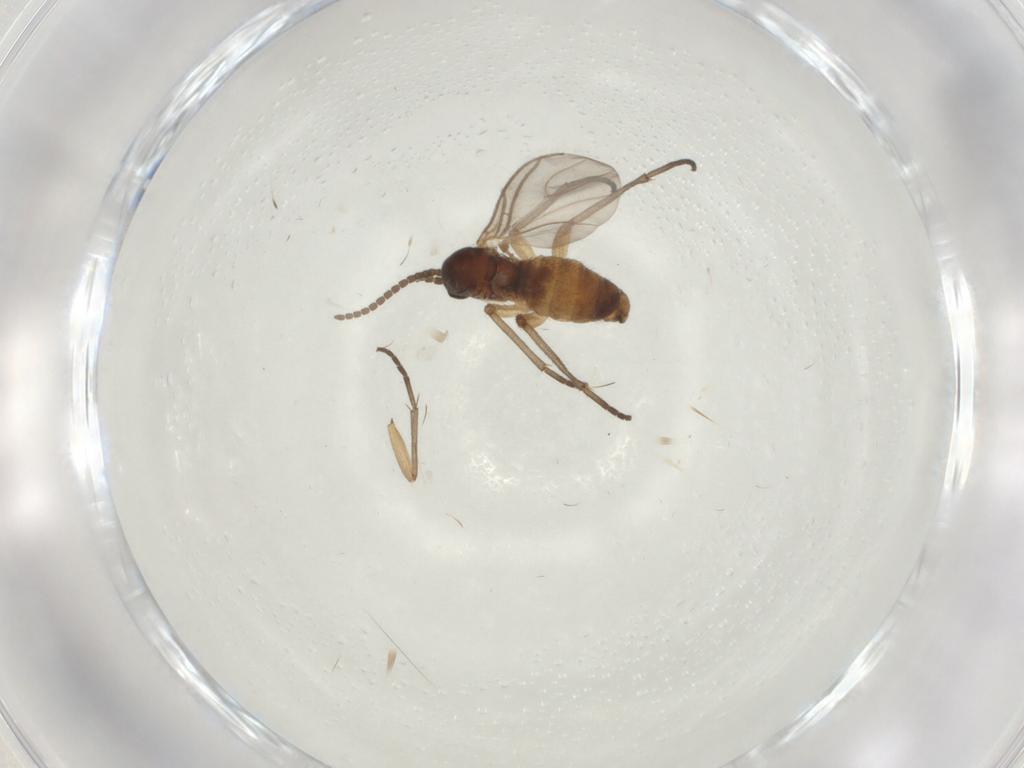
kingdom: Animalia
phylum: Arthropoda
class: Insecta
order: Diptera
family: Sciaridae
